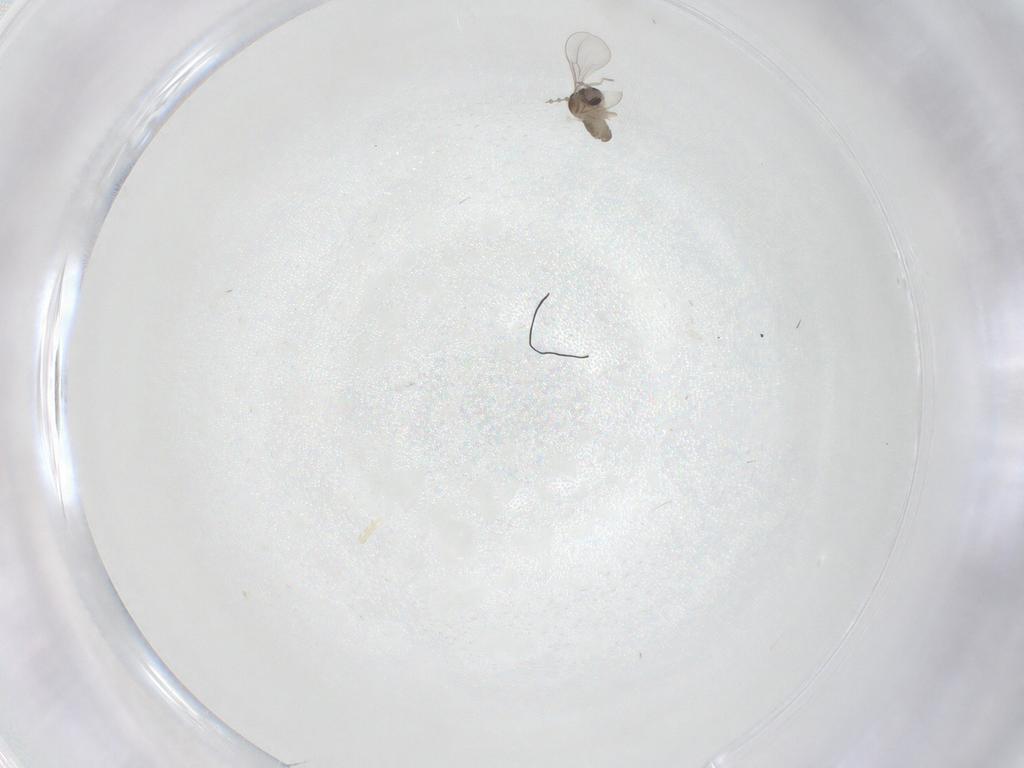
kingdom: Animalia
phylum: Arthropoda
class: Insecta
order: Diptera
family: Cecidomyiidae
